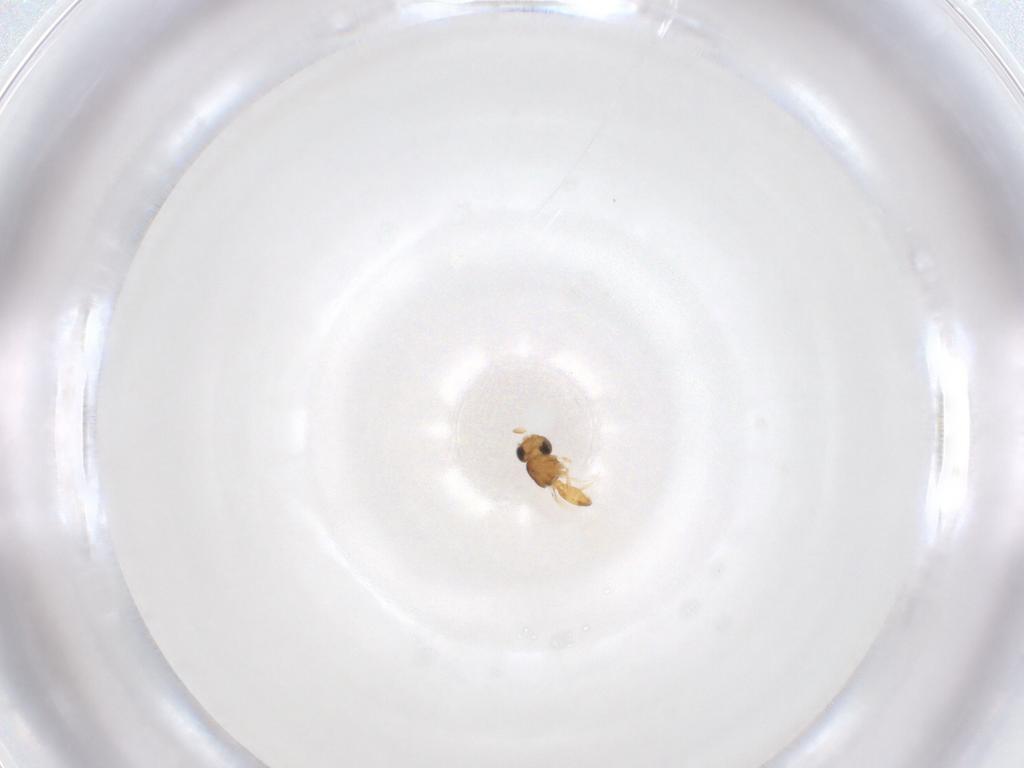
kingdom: Animalia
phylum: Arthropoda
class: Insecta
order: Hymenoptera
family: Scelionidae
